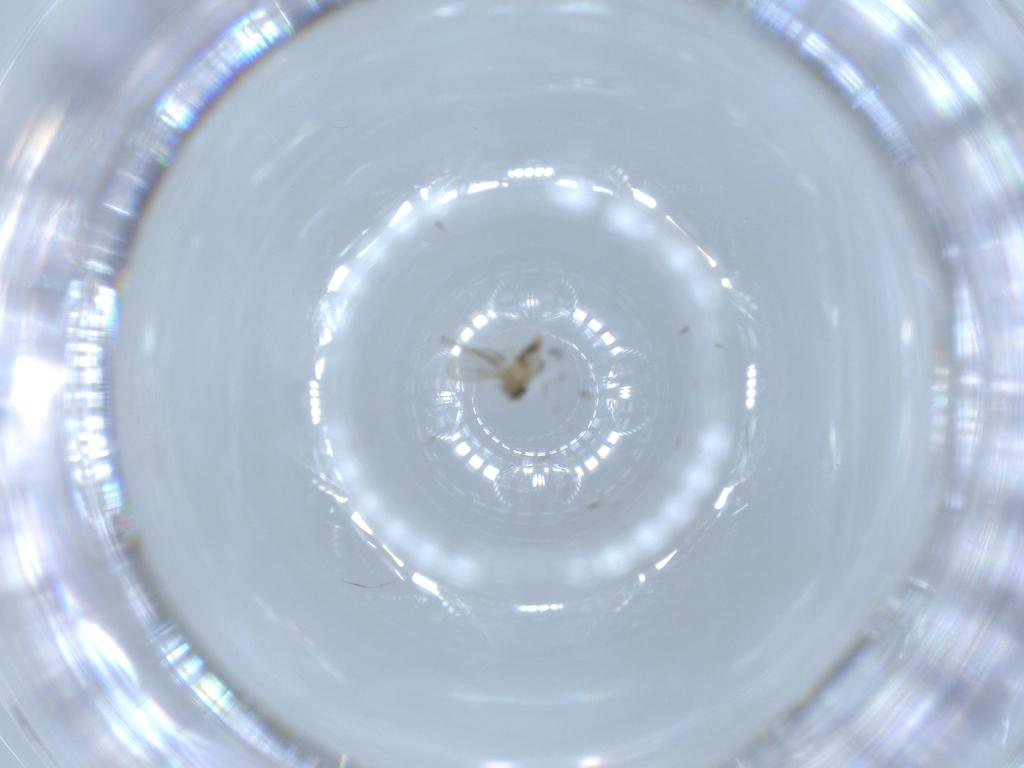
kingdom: Animalia
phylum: Arthropoda
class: Insecta
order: Diptera
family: Cecidomyiidae
